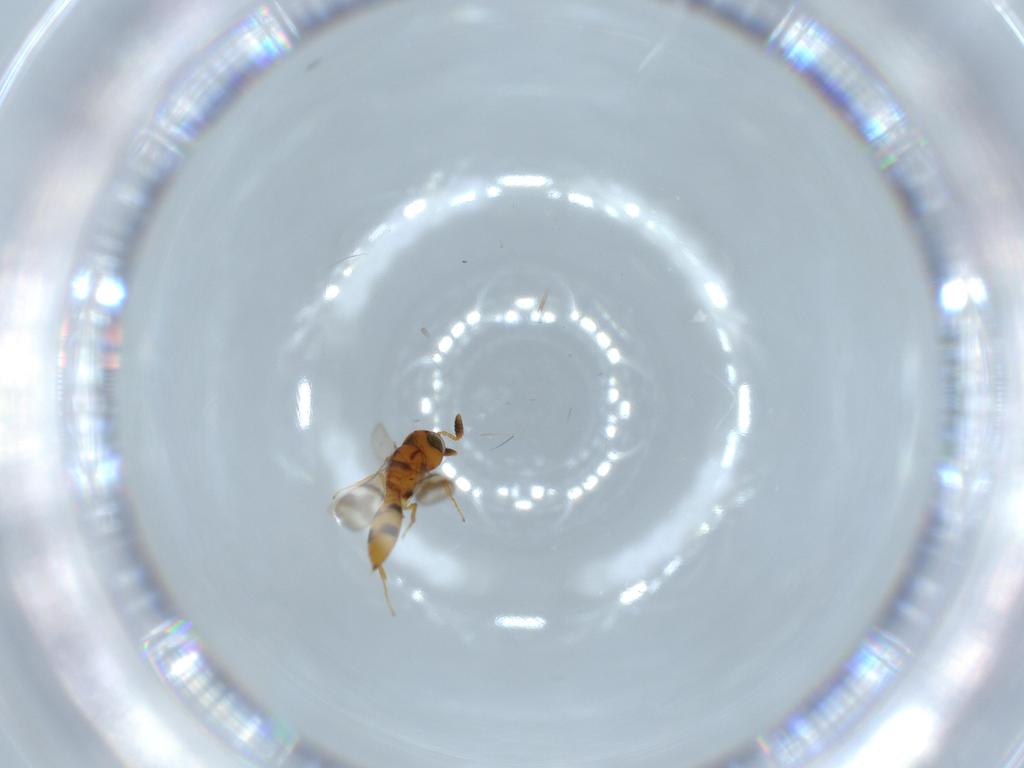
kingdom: Animalia
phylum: Arthropoda
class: Insecta
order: Hymenoptera
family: Scelionidae
